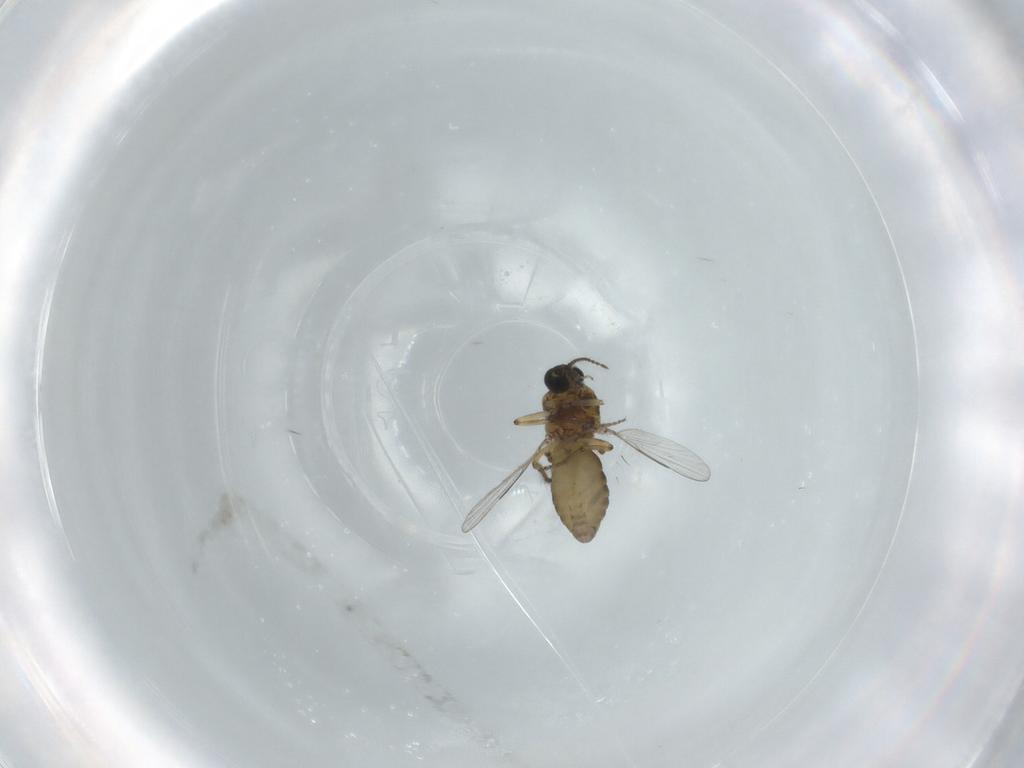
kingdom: Animalia
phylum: Arthropoda
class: Insecta
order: Diptera
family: Ceratopogonidae
